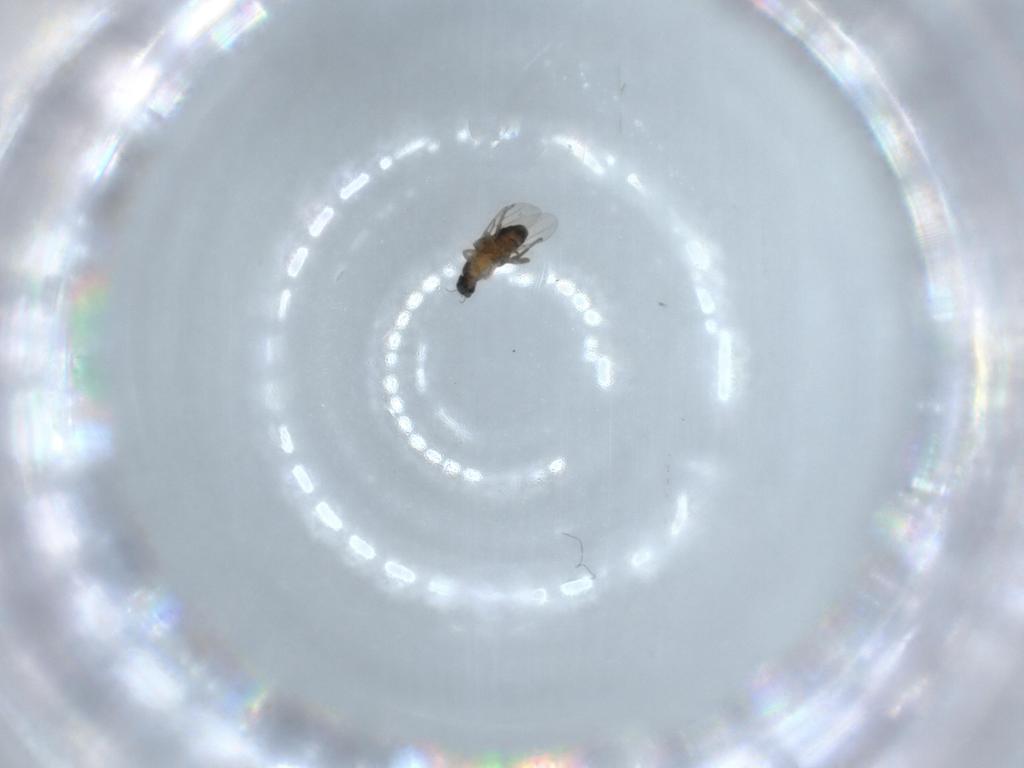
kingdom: Animalia
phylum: Arthropoda
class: Insecta
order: Diptera
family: Phoridae
